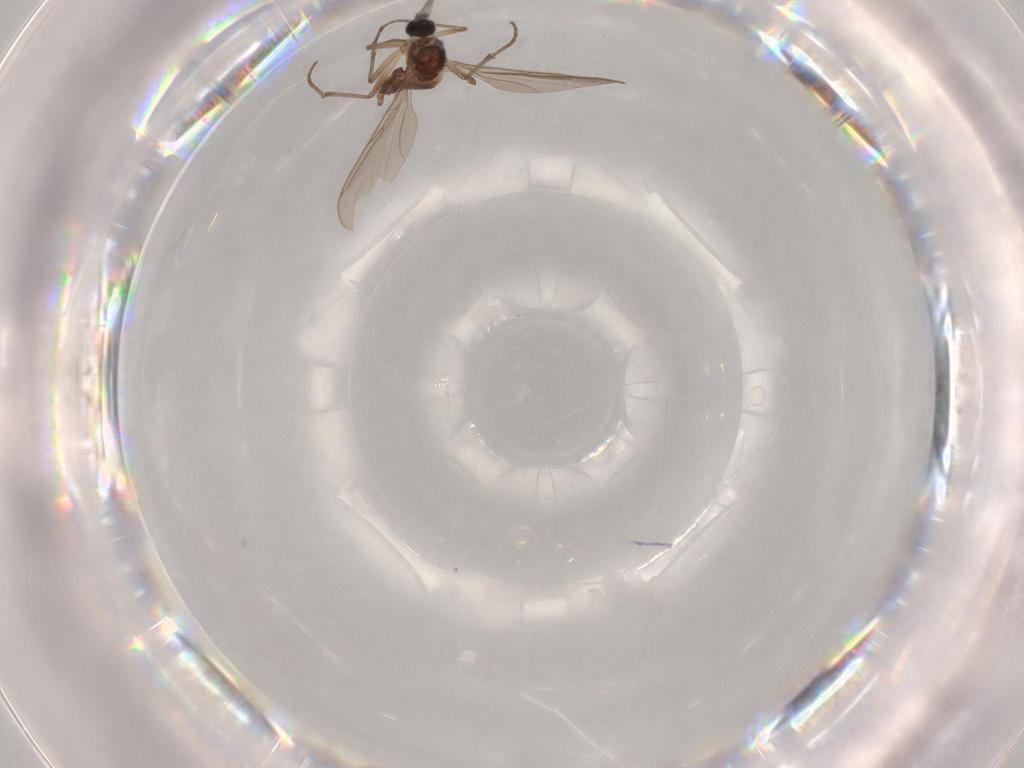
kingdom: Animalia
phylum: Arthropoda
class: Insecta
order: Diptera
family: Sciaridae
